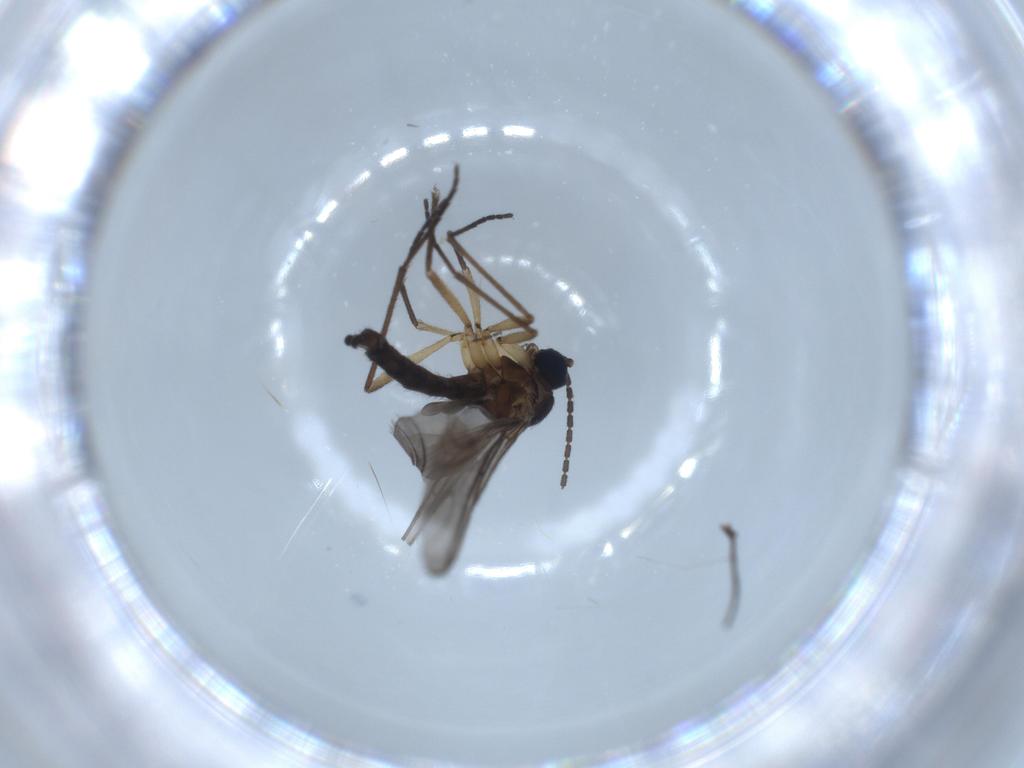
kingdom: Animalia
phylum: Arthropoda
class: Insecta
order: Diptera
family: Sciaridae
